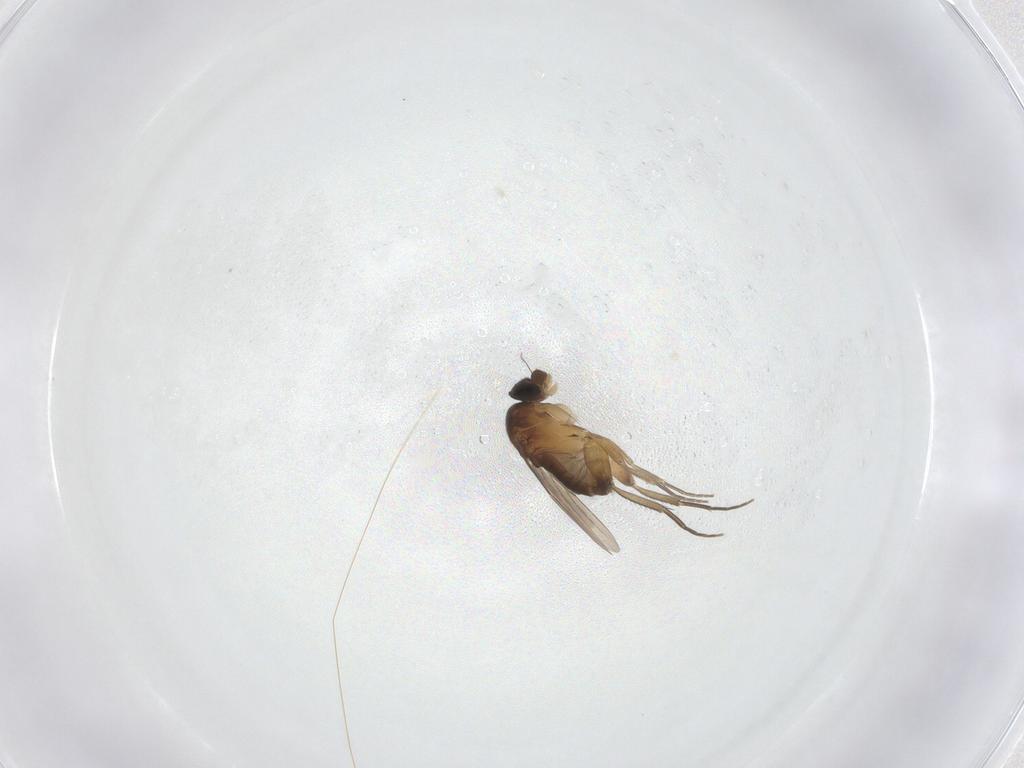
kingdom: Animalia
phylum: Arthropoda
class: Insecta
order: Diptera
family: Phoridae
